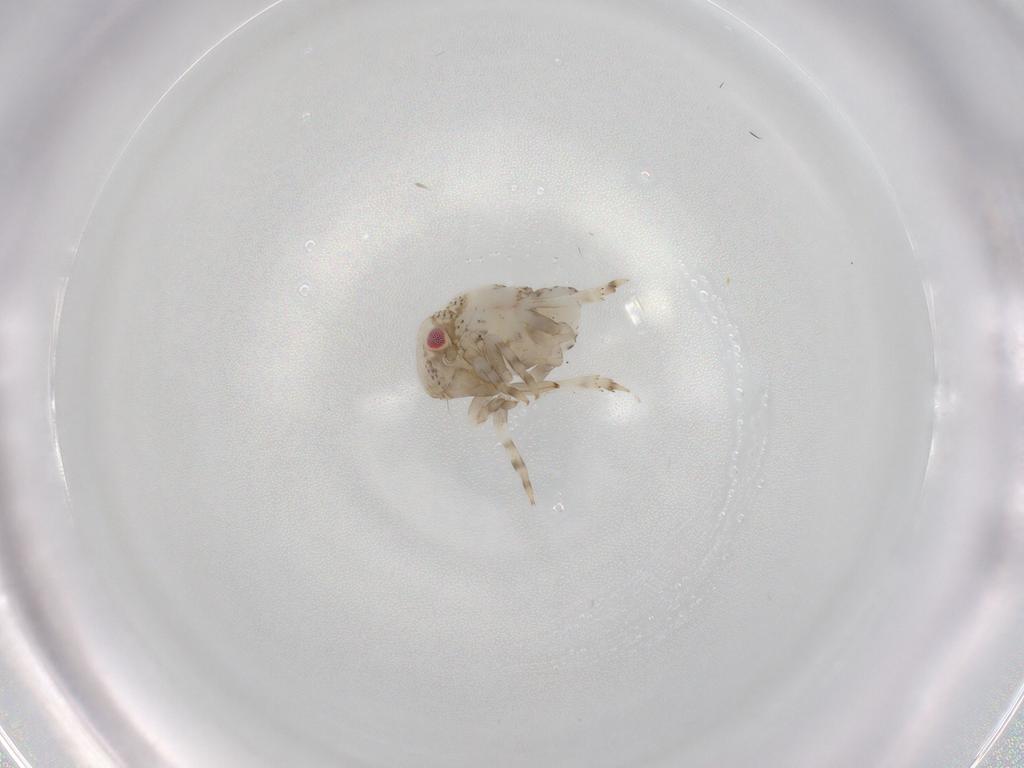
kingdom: Animalia
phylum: Arthropoda
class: Insecta
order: Hemiptera
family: Acanaloniidae
